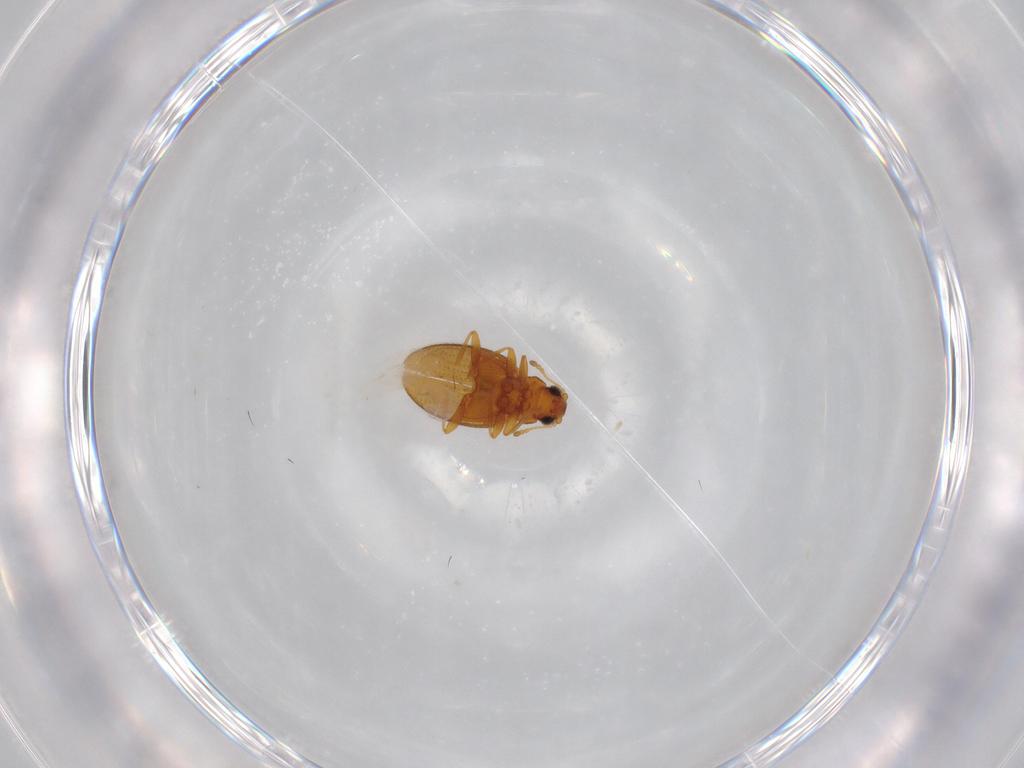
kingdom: Animalia
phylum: Arthropoda
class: Insecta
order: Coleoptera
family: Latridiidae
